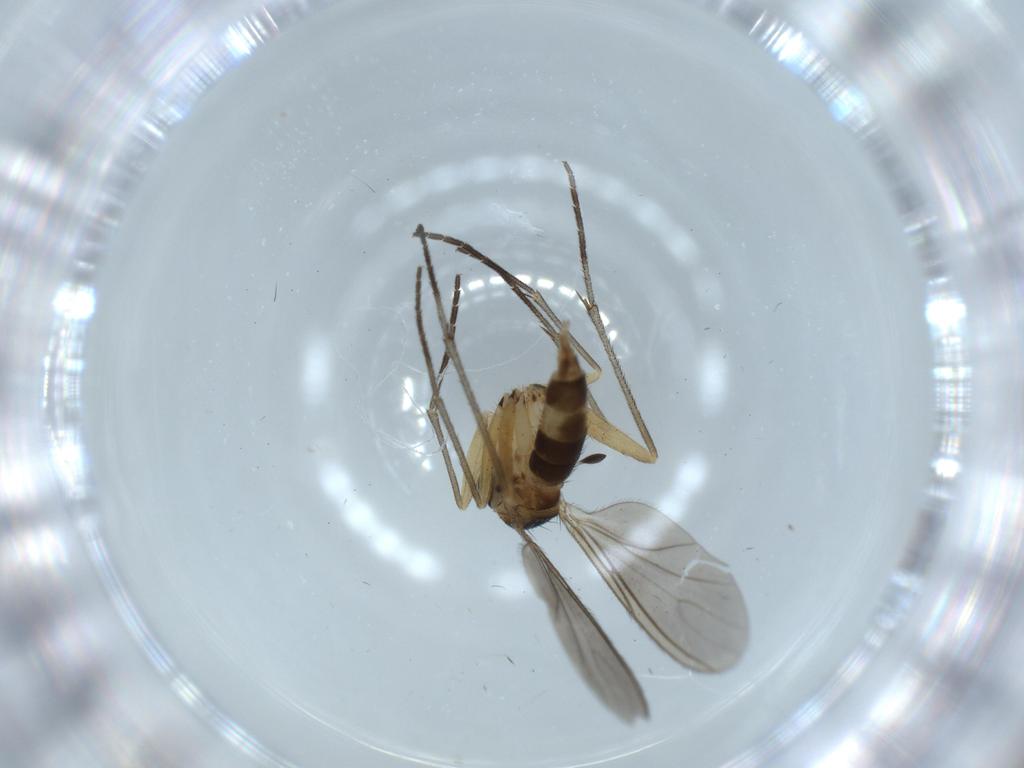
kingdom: Animalia
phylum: Arthropoda
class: Insecta
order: Diptera
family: Sciaridae
